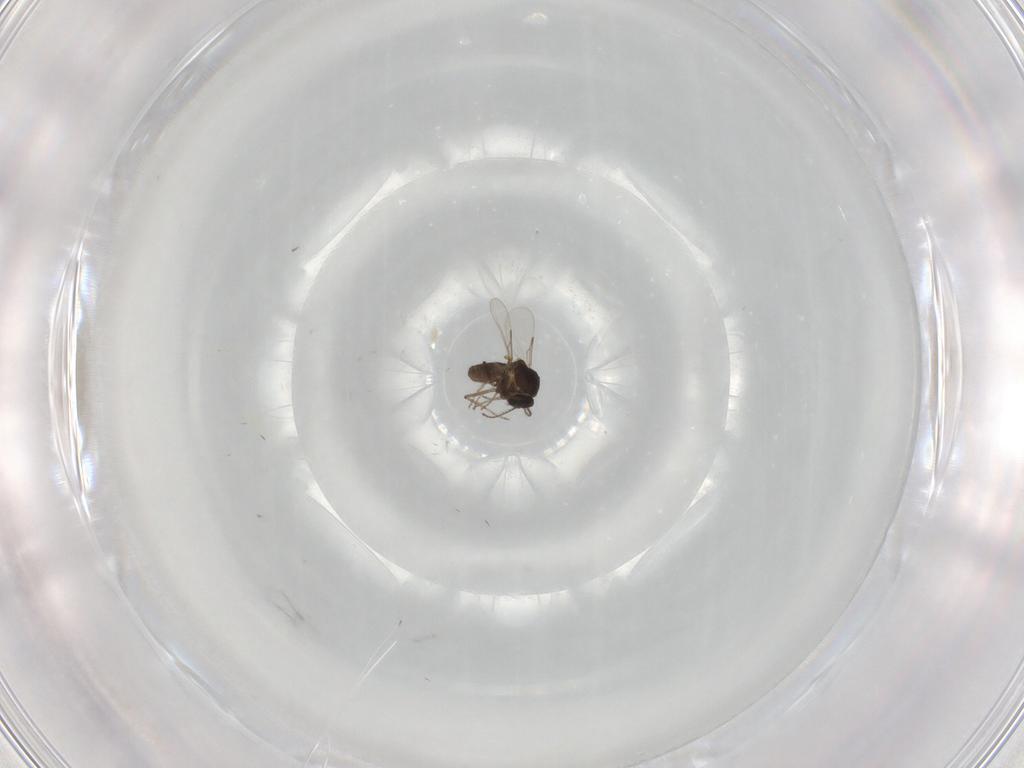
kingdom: Animalia
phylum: Arthropoda
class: Insecta
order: Diptera
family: Ceratopogonidae
